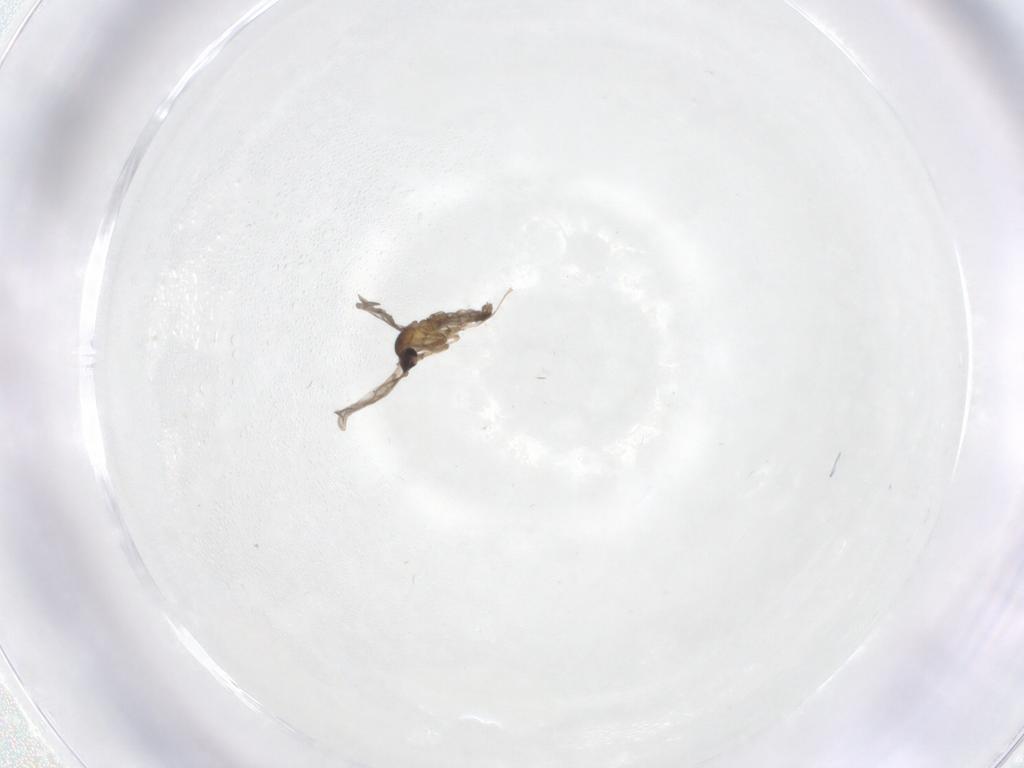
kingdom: Animalia
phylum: Arthropoda
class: Insecta
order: Diptera
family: Cecidomyiidae
